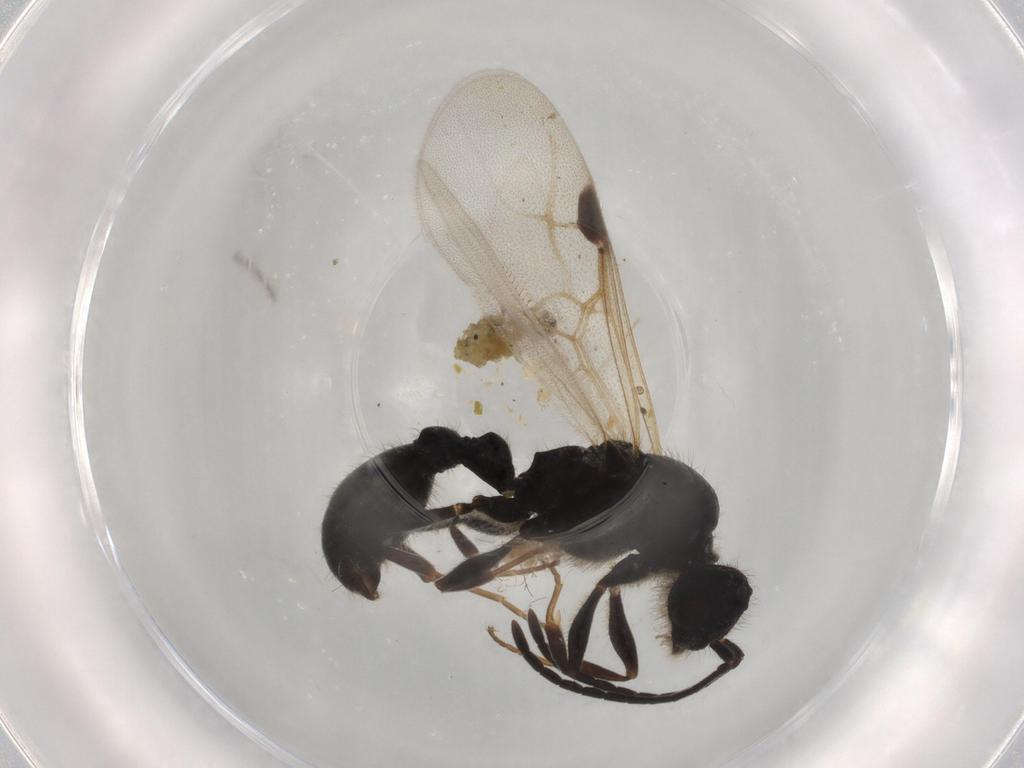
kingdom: Animalia
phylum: Arthropoda
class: Insecta
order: Hymenoptera
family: Formicidae
